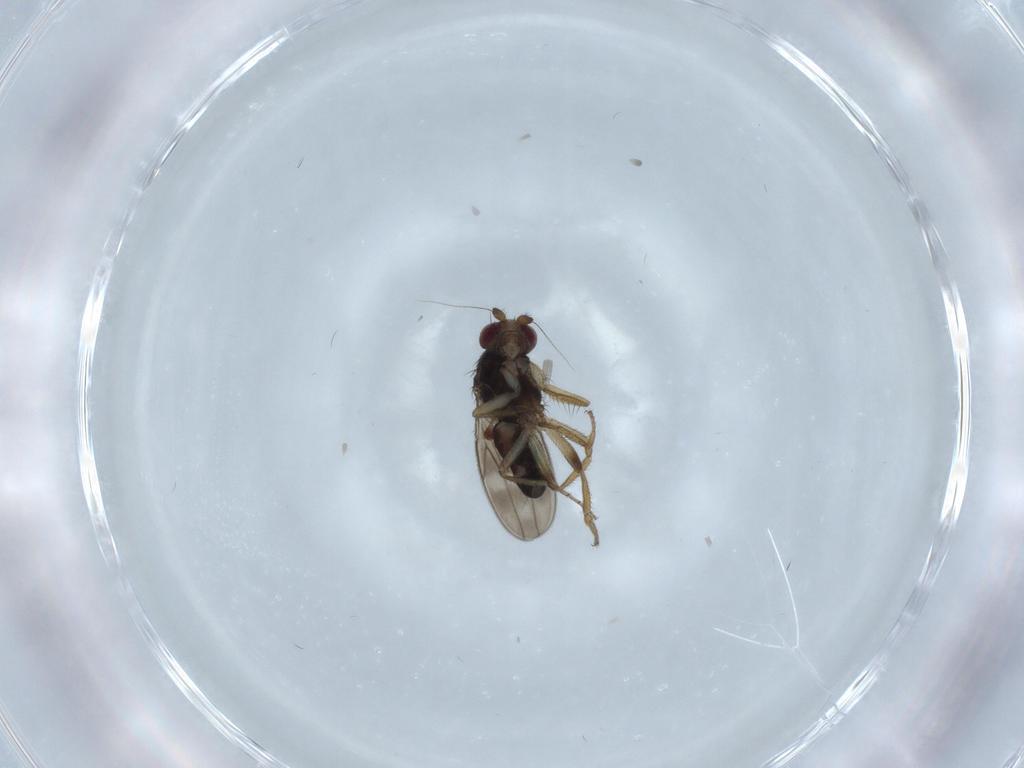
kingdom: Animalia
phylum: Arthropoda
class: Insecta
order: Diptera
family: Sphaeroceridae
